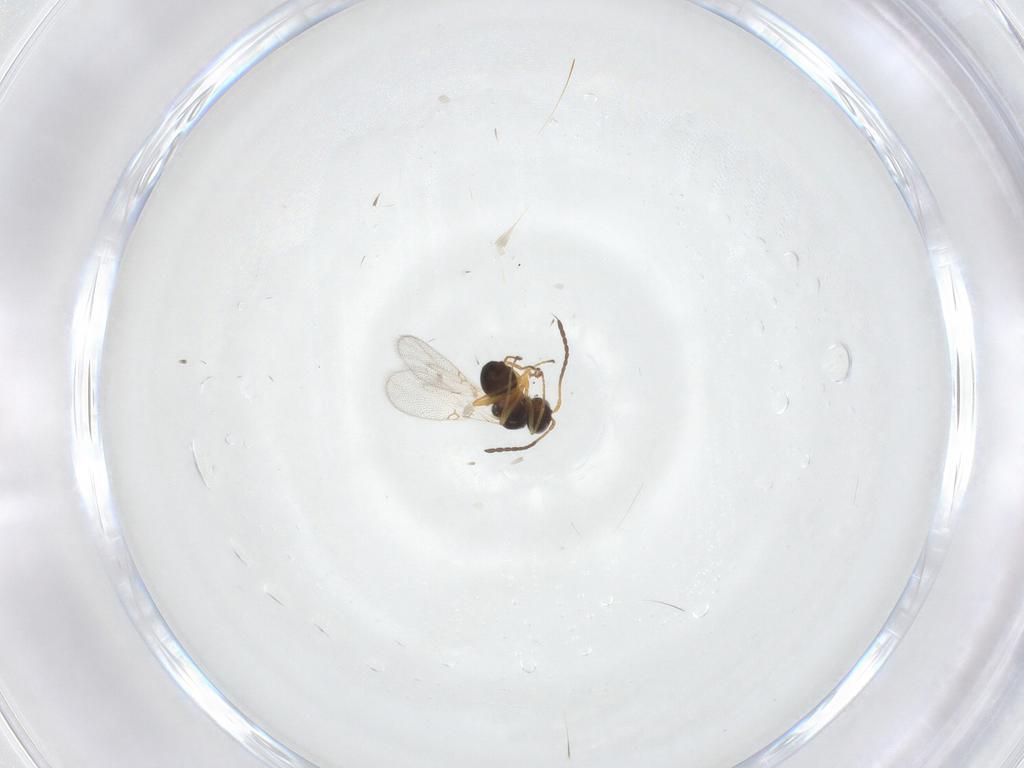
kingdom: Animalia
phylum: Arthropoda
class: Insecta
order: Hymenoptera
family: Figitidae
